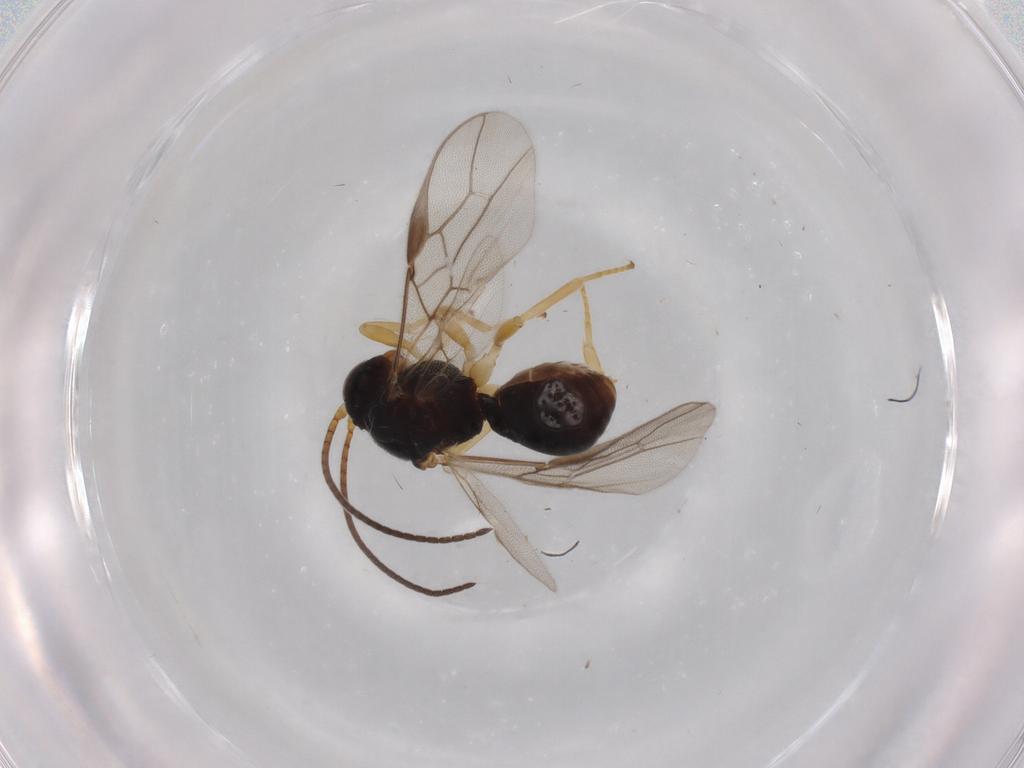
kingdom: Animalia
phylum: Arthropoda
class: Insecta
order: Hymenoptera
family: Braconidae
